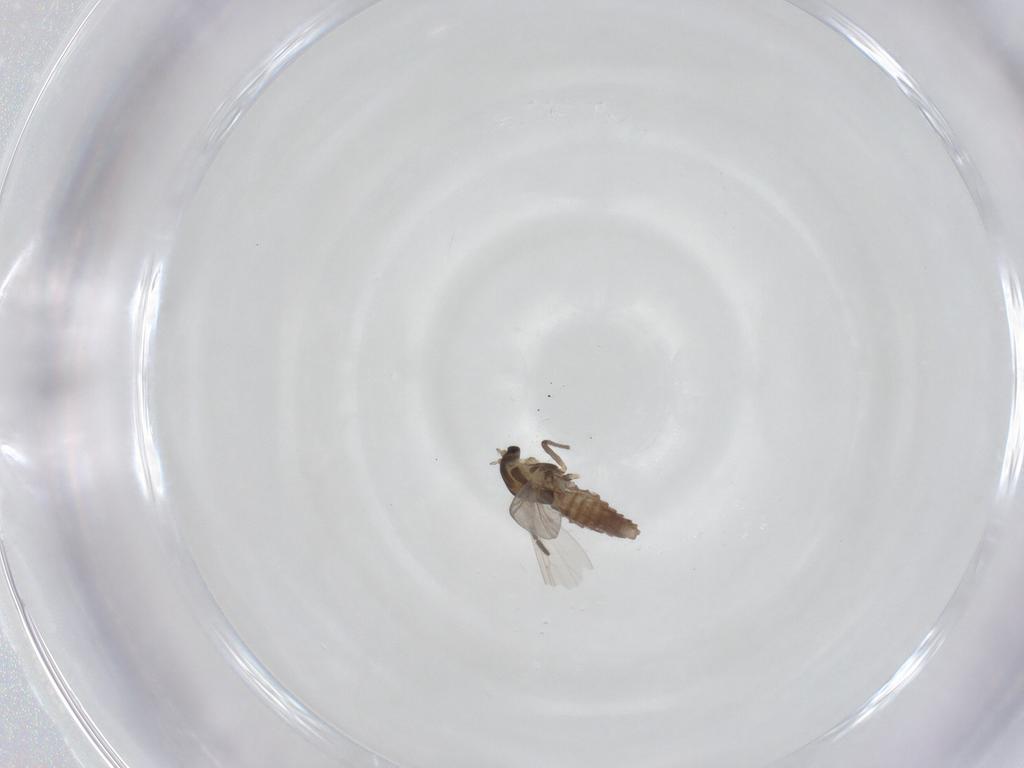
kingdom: Animalia
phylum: Arthropoda
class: Insecta
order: Diptera
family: Chironomidae
